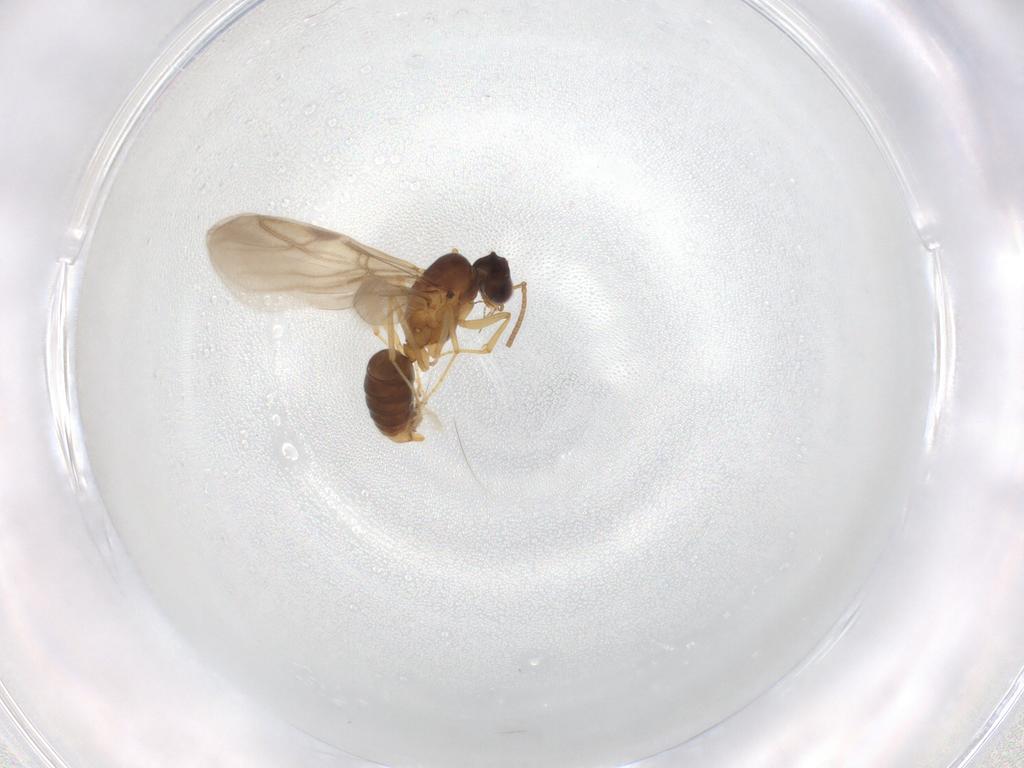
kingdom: Animalia
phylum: Arthropoda
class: Insecta
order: Hymenoptera
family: Formicidae
